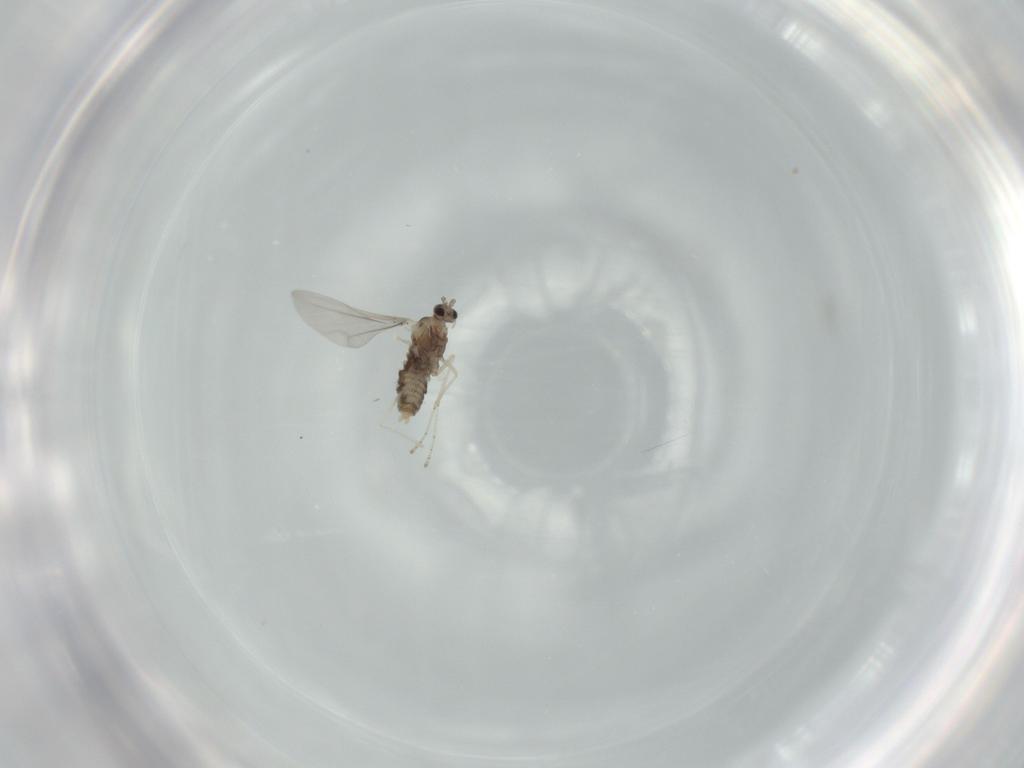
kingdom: Animalia
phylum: Arthropoda
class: Insecta
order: Diptera
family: Cecidomyiidae
